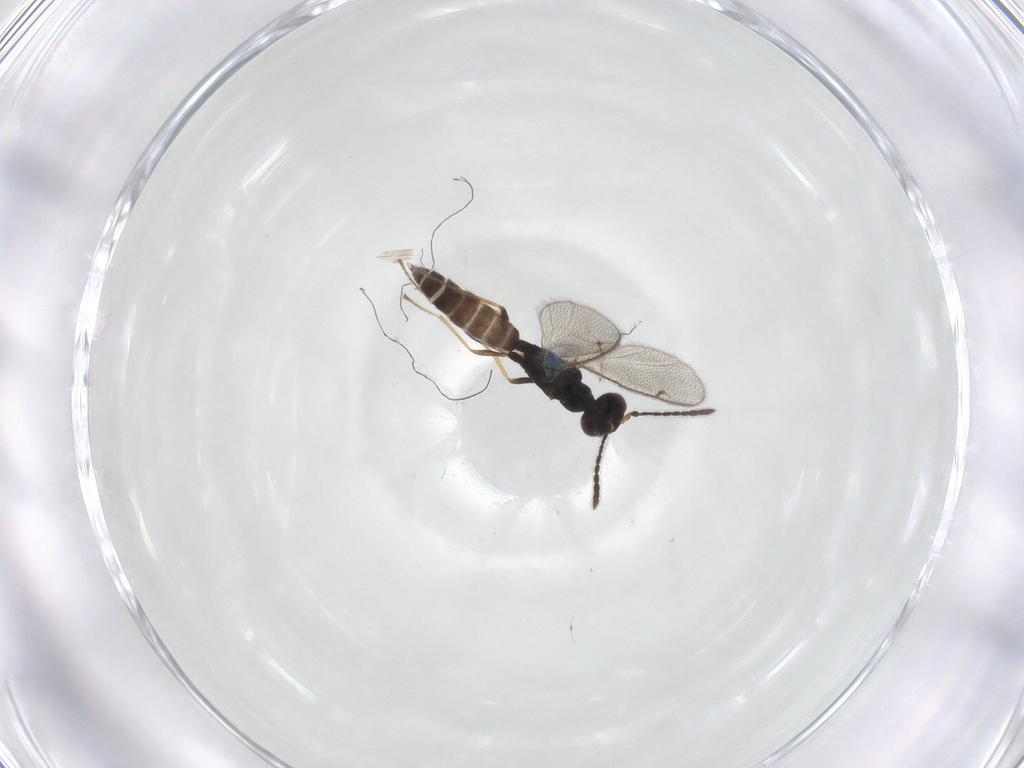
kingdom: Animalia
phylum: Arthropoda
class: Insecta
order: Hymenoptera
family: Pteromalidae
